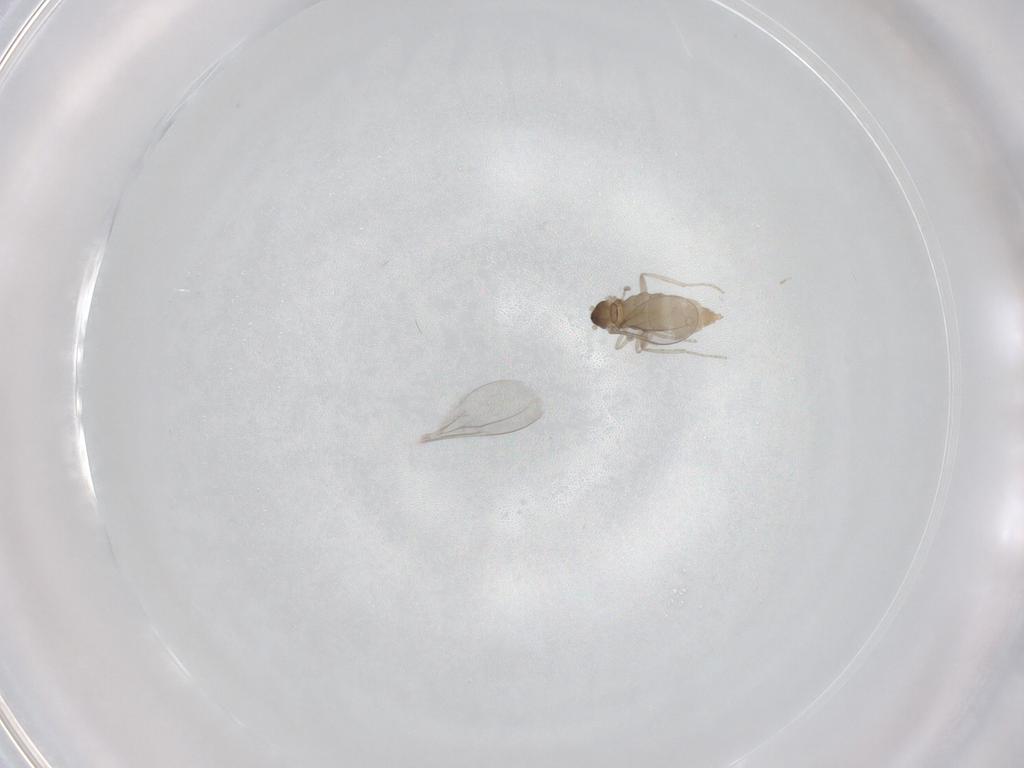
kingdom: Animalia
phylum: Arthropoda
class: Insecta
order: Diptera
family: Cecidomyiidae
